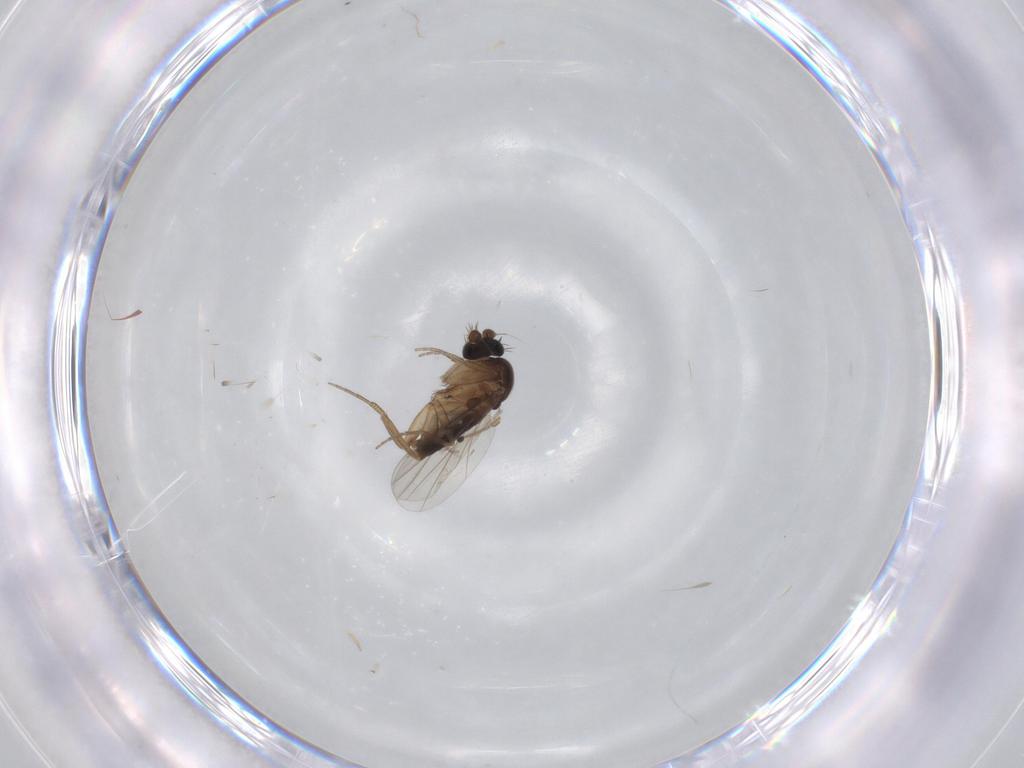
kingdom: Animalia
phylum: Arthropoda
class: Insecta
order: Diptera
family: Phoridae
